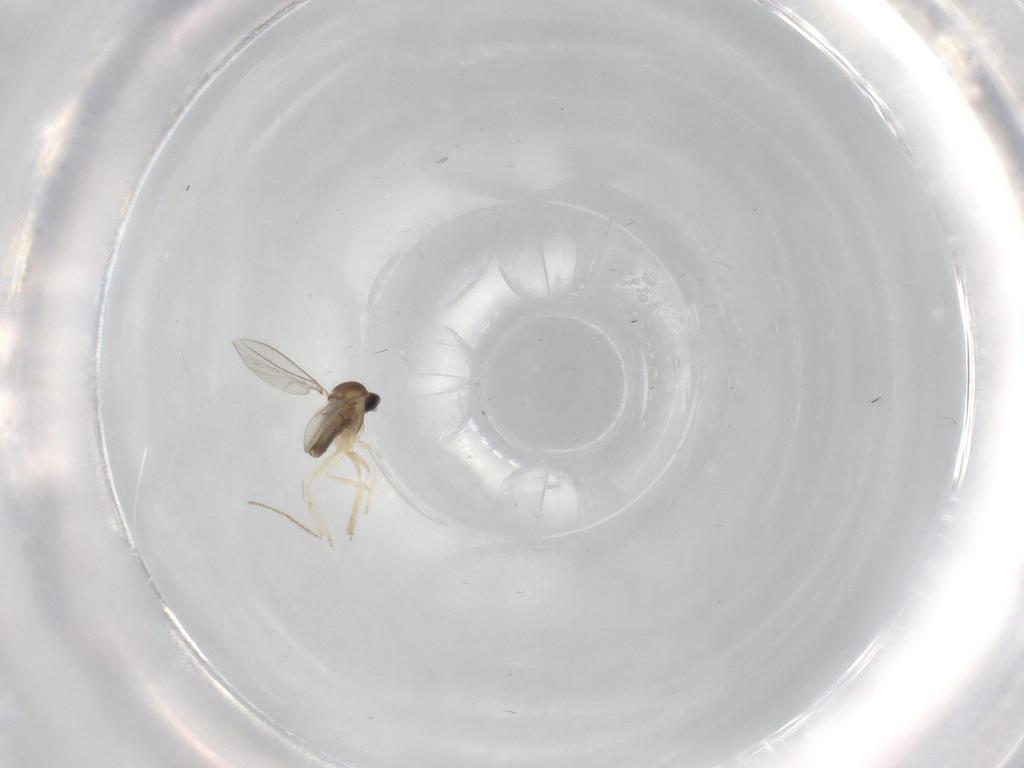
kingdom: Animalia
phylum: Arthropoda
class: Insecta
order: Diptera
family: Cecidomyiidae
